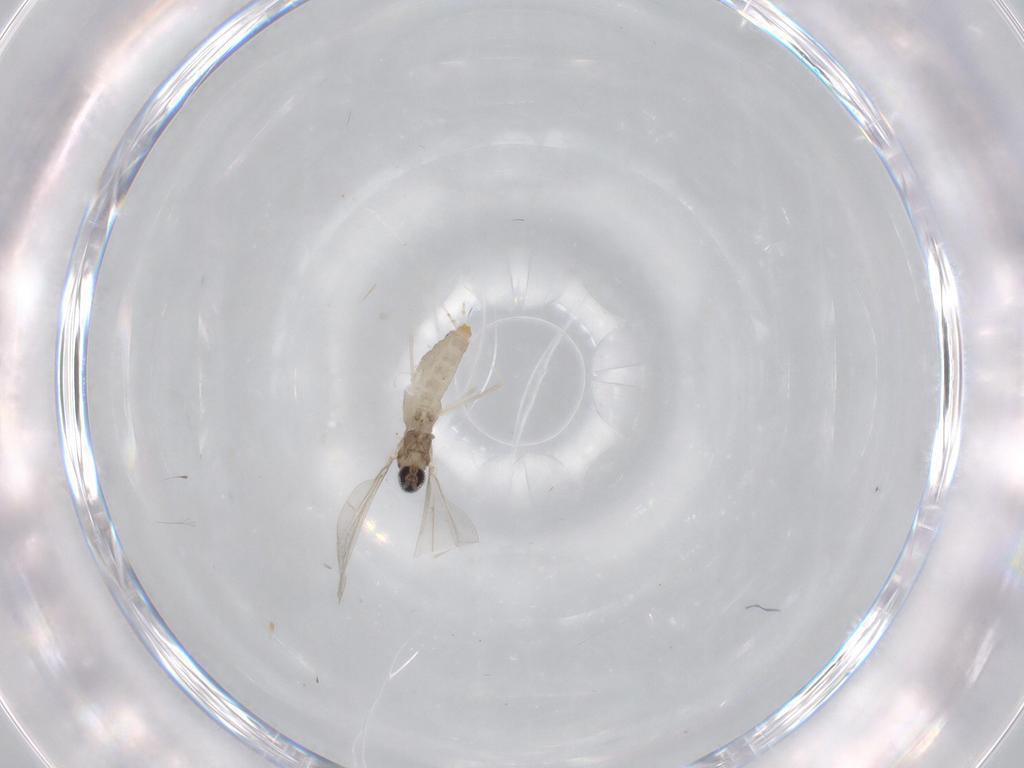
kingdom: Animalia
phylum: Arthropoda
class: Insecta
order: Diptera
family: Cecidomyiidae
